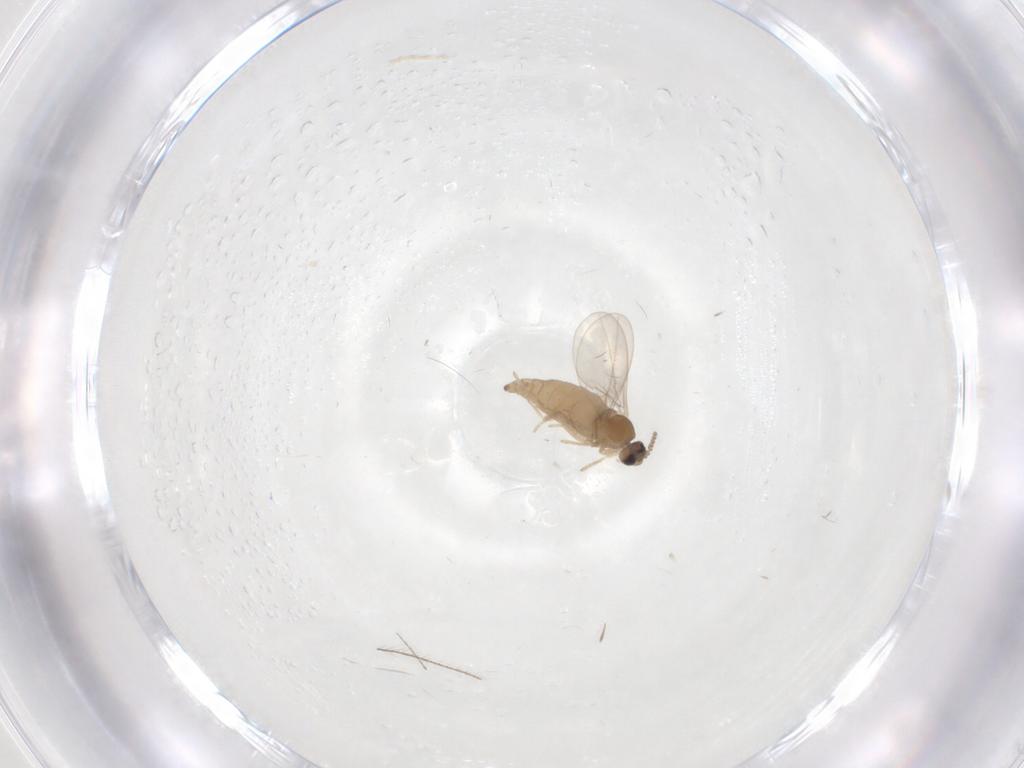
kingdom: Animalia
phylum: Arthropoda
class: Insecta
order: Diptera
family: Cecidomyiidae
